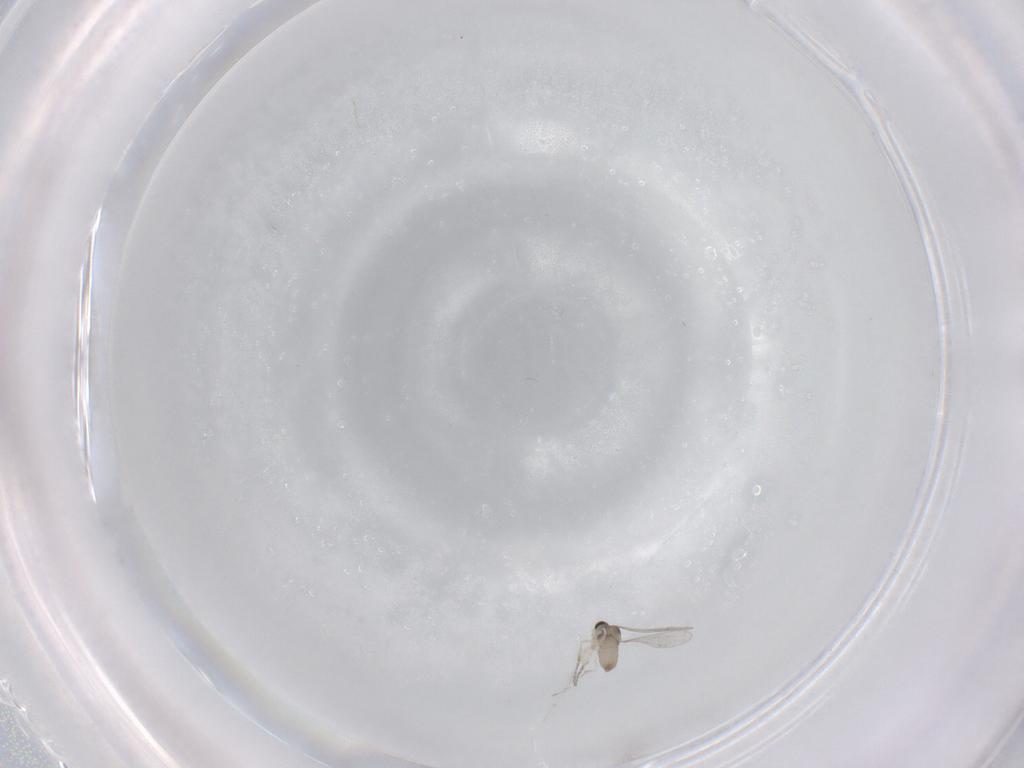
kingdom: Animalia
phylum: Arthropoda
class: Insecta
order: Diptera
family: Sciaridae
